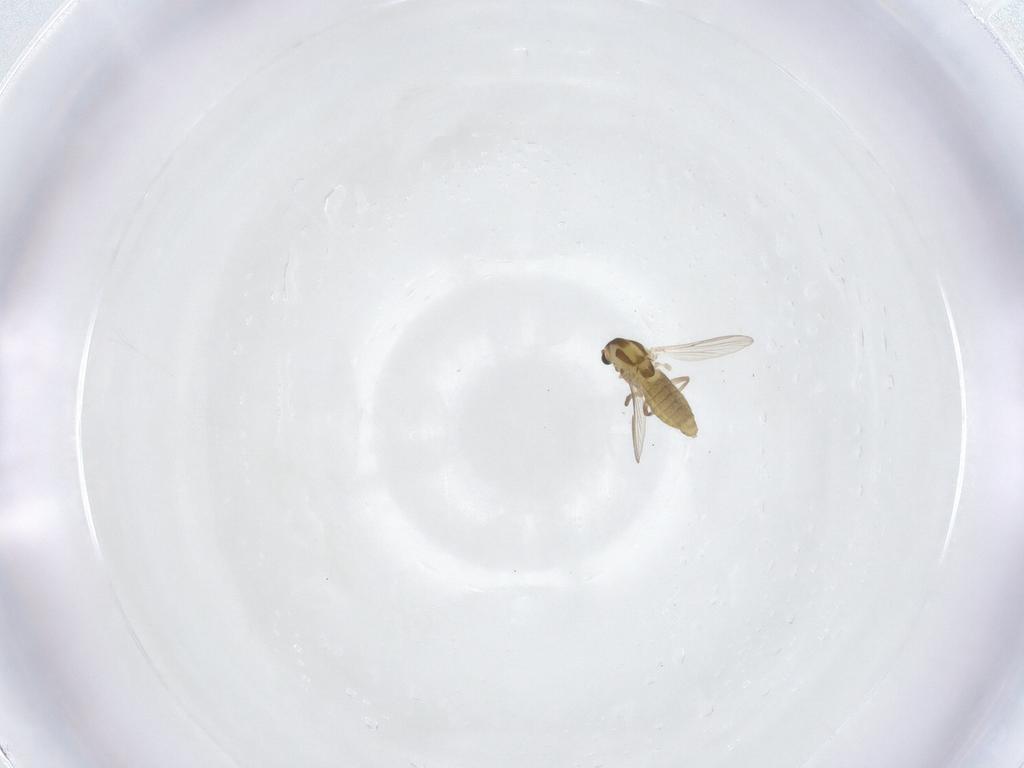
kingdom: Animalia
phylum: Arthropoda
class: Insecta
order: Diptera
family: Chironomidae
